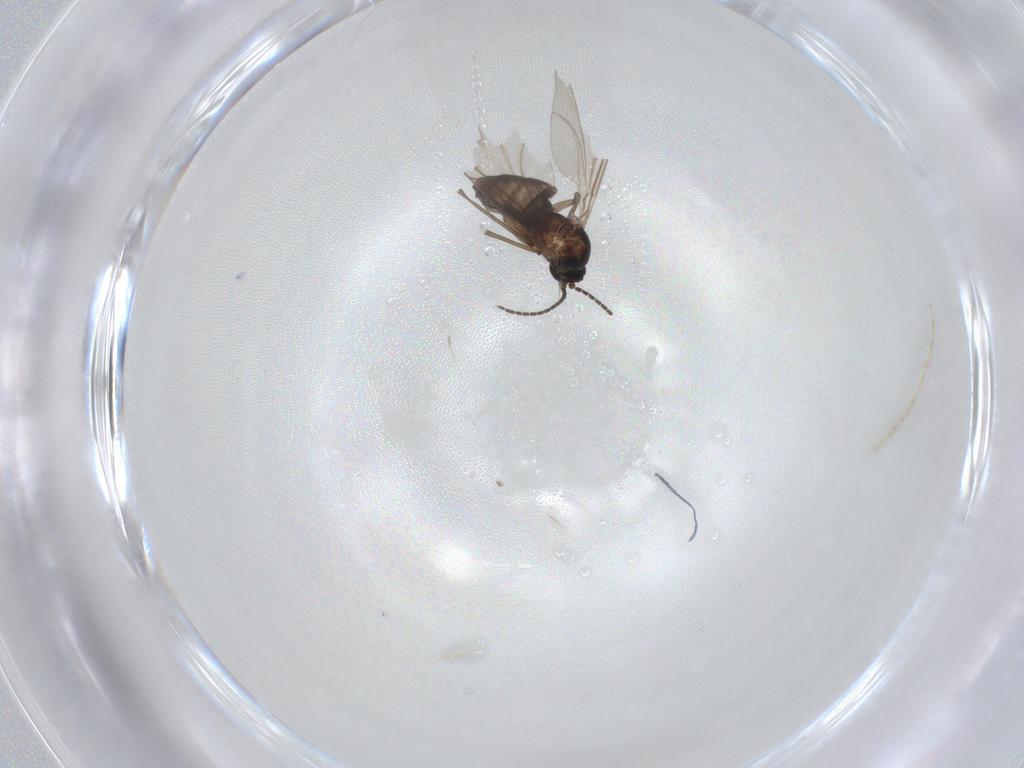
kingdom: Animalia
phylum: Arthropoda
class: Insecta
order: Diptera
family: Sciaridae
